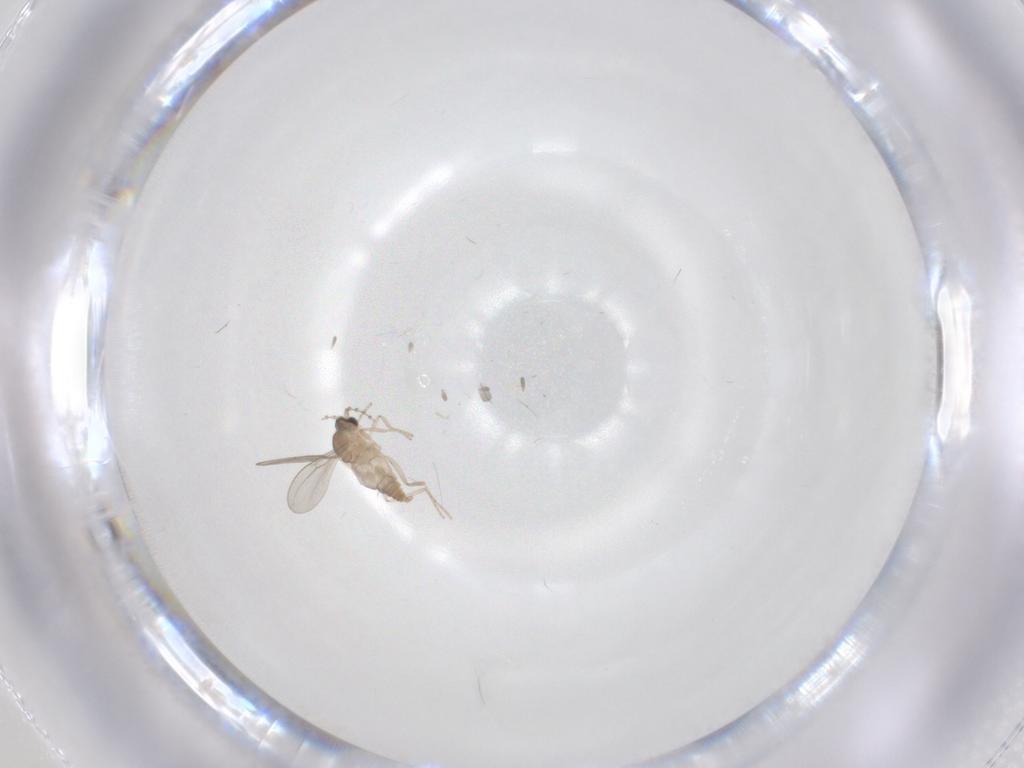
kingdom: Animalia
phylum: Arthropoda
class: Insecta
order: Diptera
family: Cecidomyiidae
